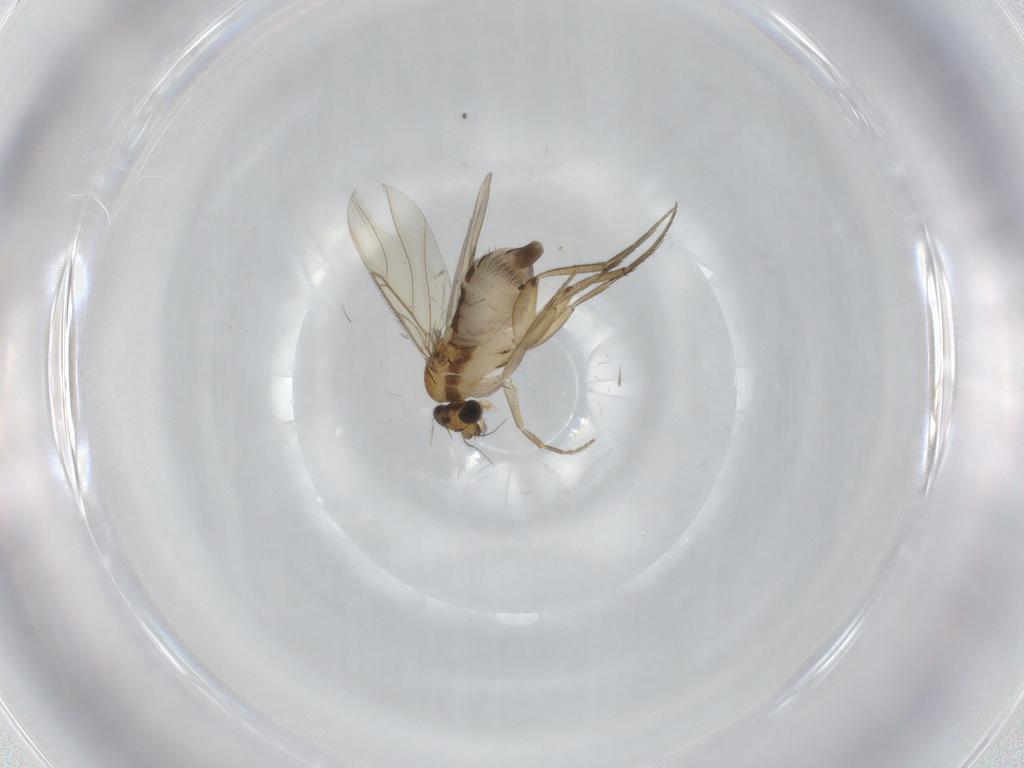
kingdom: Animalia
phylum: Arthropoda
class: Insecta
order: Diptera
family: Phoridae
